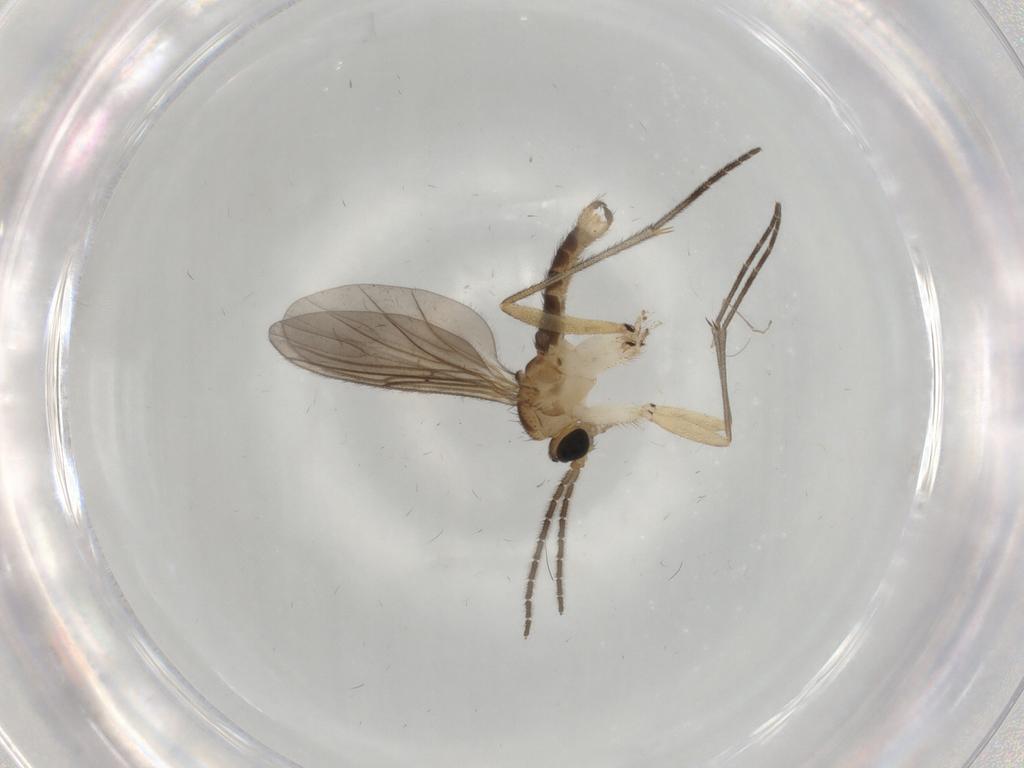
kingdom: Animalia
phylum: Arthropoda
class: Insecta
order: Diptera
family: Sciaridae
